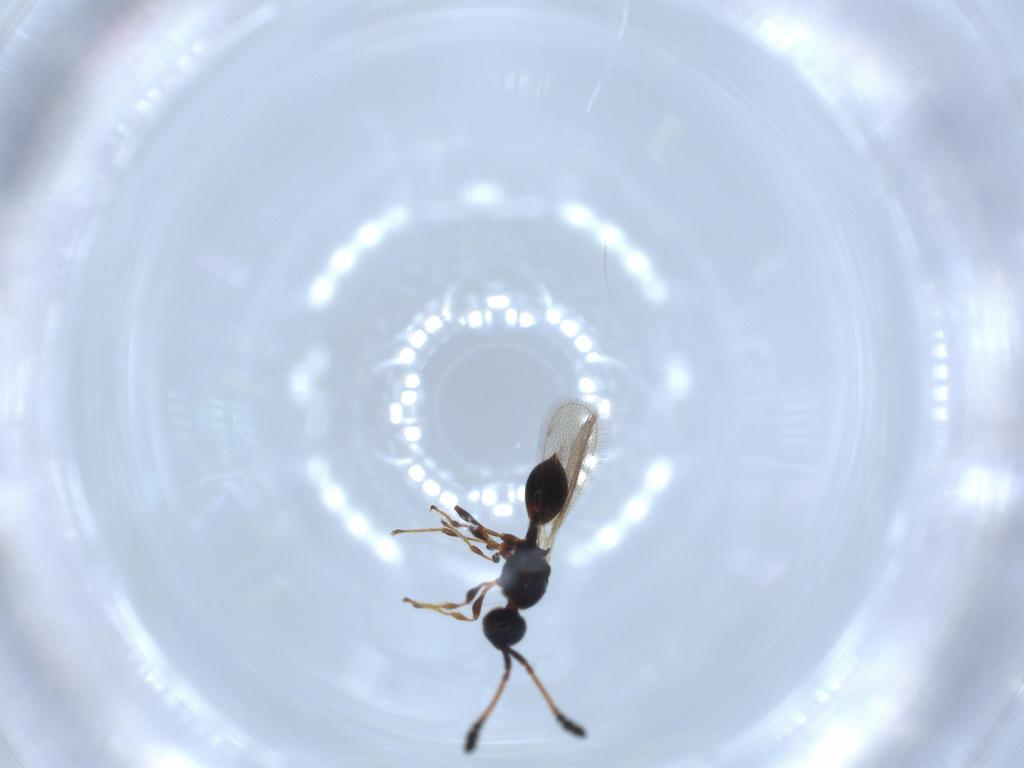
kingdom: Animalia
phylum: Arthropoda
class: Insecta
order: Hymenoptera
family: Diapriidae
